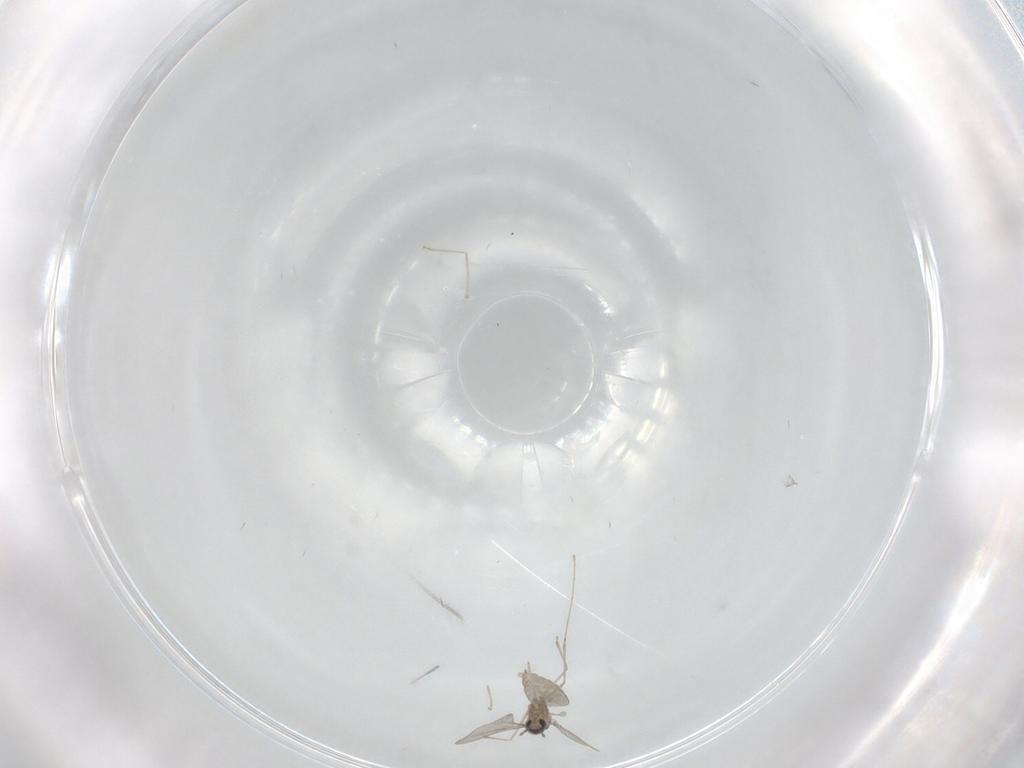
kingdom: Animalia
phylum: Arthropoda
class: Insecta
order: Diptera
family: Cecidomyiidae
